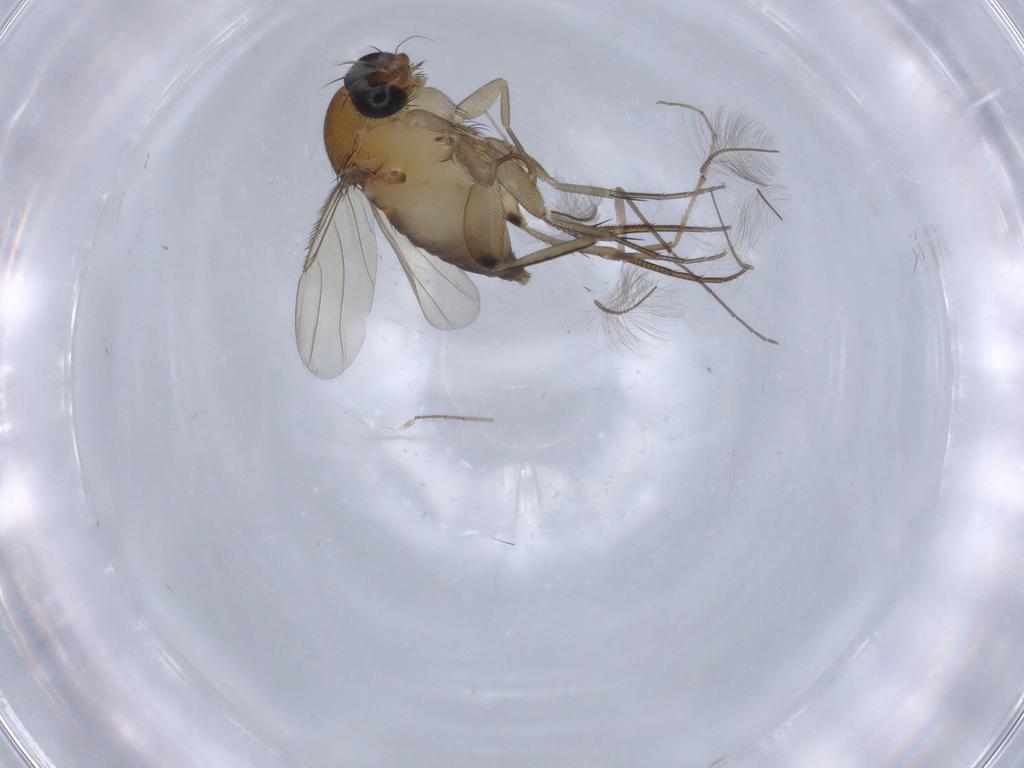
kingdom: Animalia
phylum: Arthropoda
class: Insecta
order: Diptera
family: Phoridae
